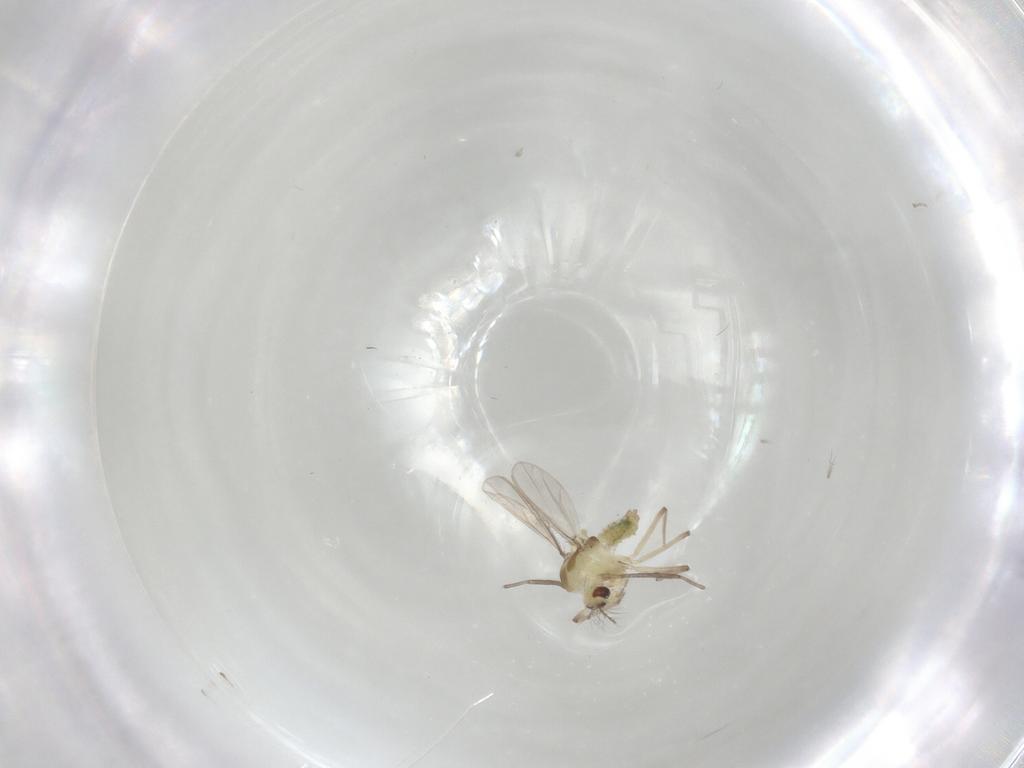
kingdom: Animalia
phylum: Arthropoda
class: Insecta
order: Diptera
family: Chironomidae
